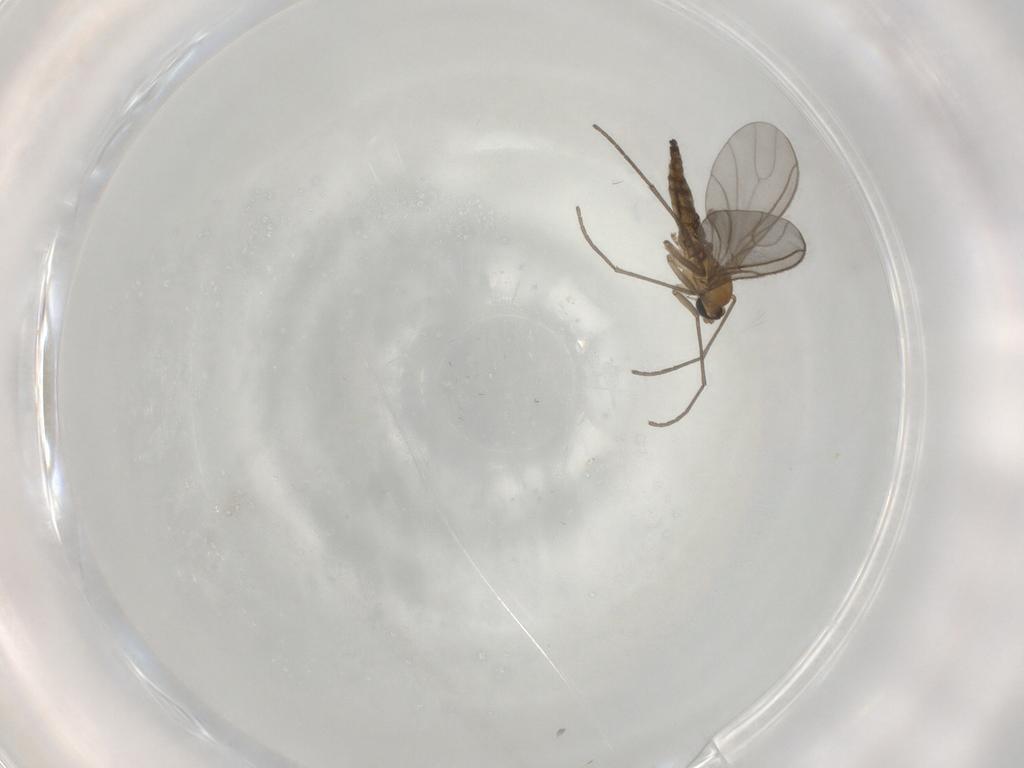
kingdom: Animalia
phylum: Arthropoda
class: Insecta
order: Diptera
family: Sciaridae
